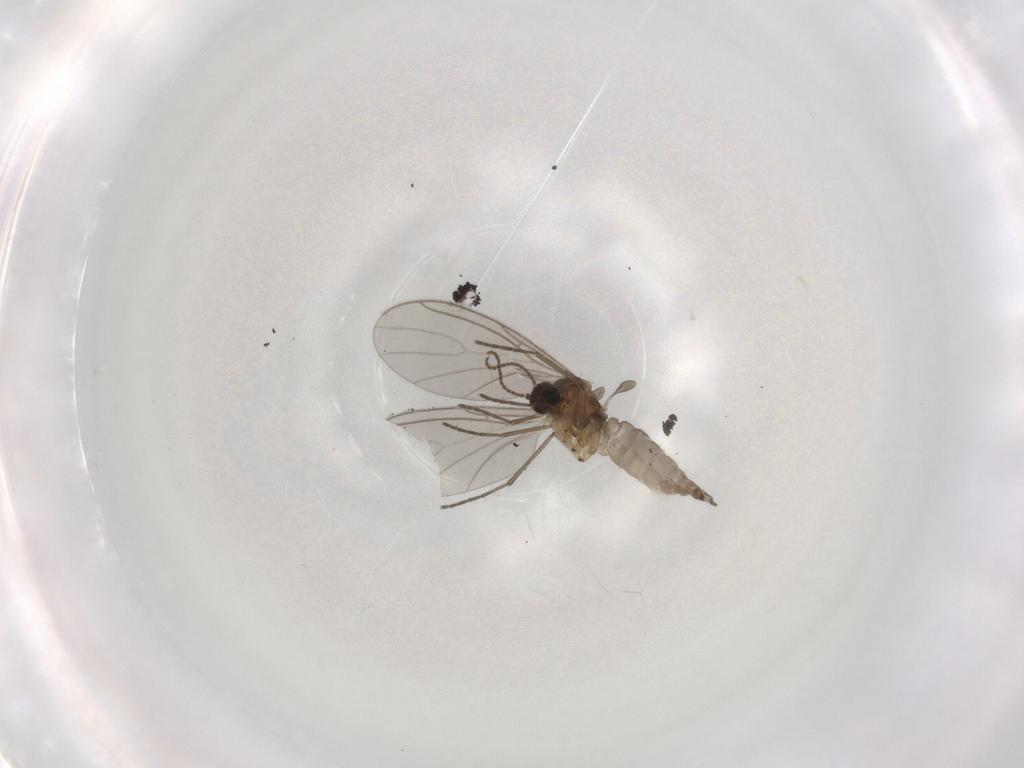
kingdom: Animalia
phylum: Arthropoda
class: Insecta
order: Diptera
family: Sciaridae
